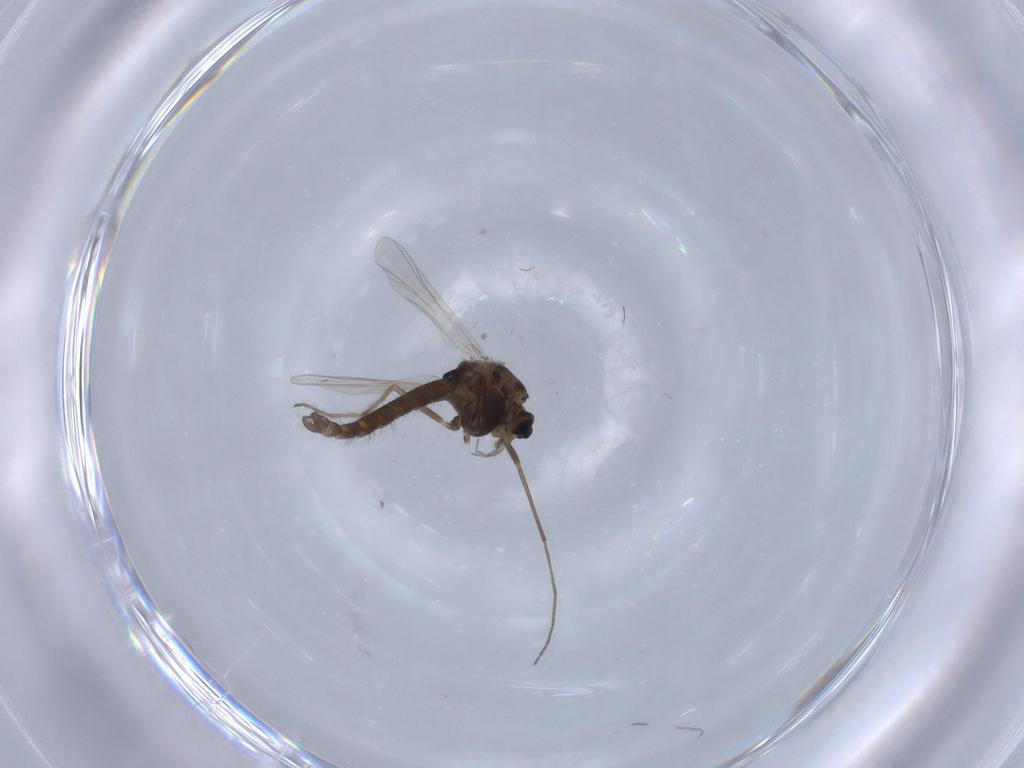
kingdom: Animalia
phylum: Arthropoda
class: Insecta
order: Diptera
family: Chironomidae
